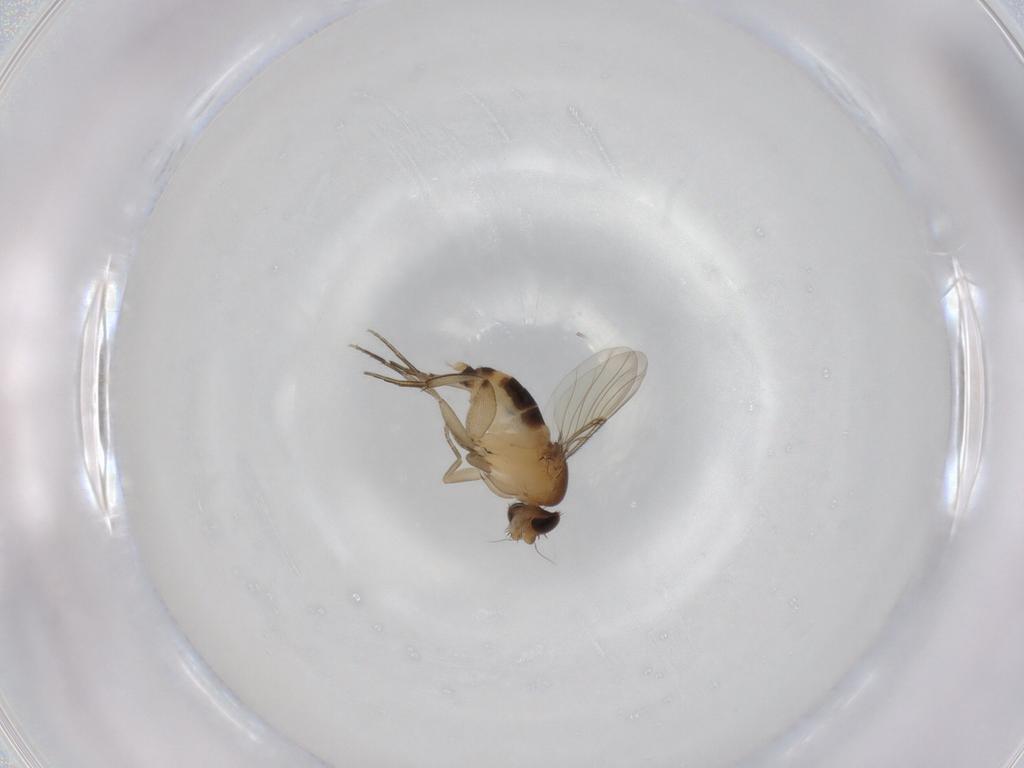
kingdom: Animalia
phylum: Arthropoda
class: Insecta
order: Diptera
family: Phoridae
